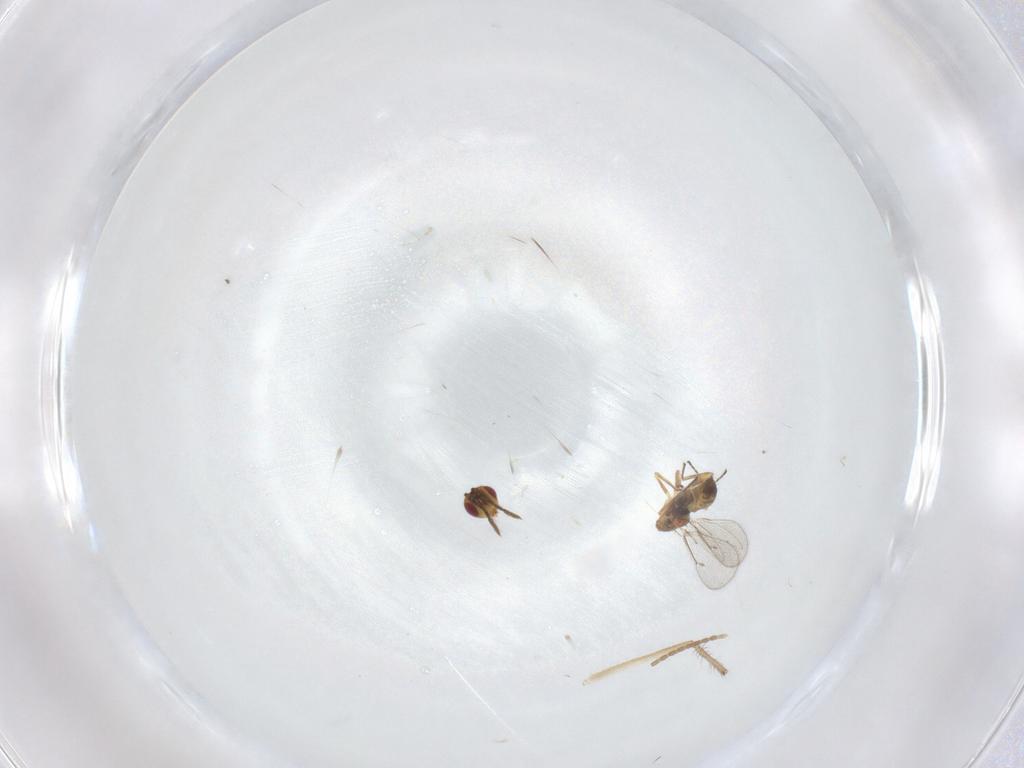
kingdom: Animalia
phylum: Arthropoda
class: Insecta
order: Hymenoptera
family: Eulophidae
